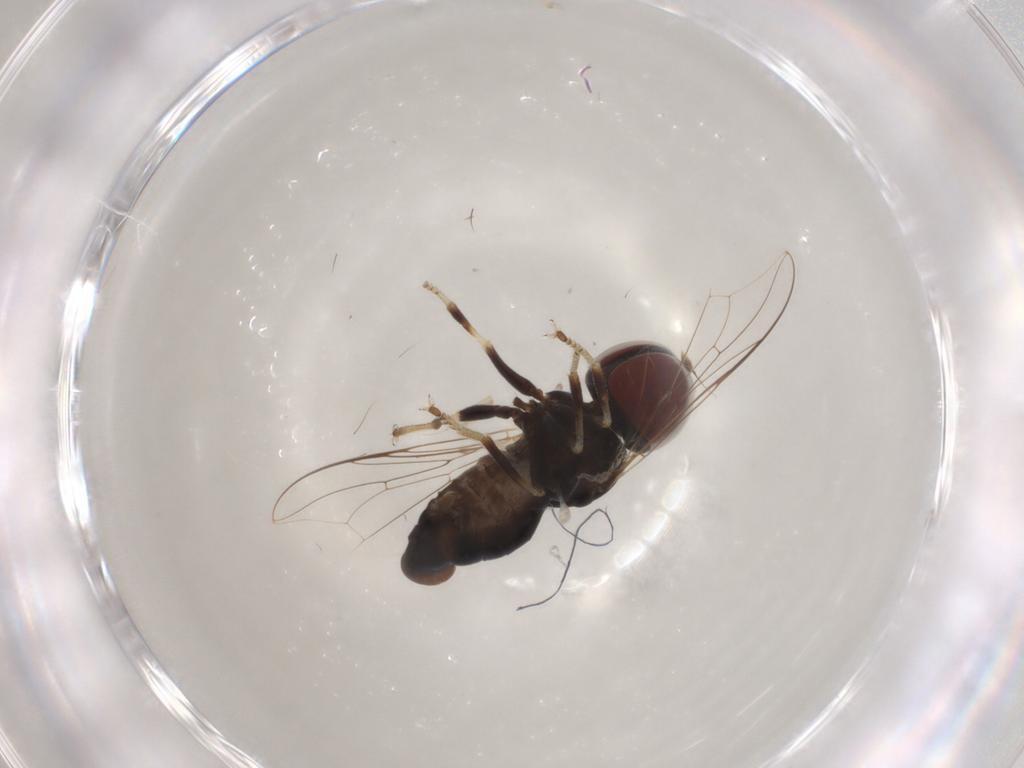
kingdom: Animalia
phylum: Arthropoda
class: Insecta
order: Diptera
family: Pipunculidae
